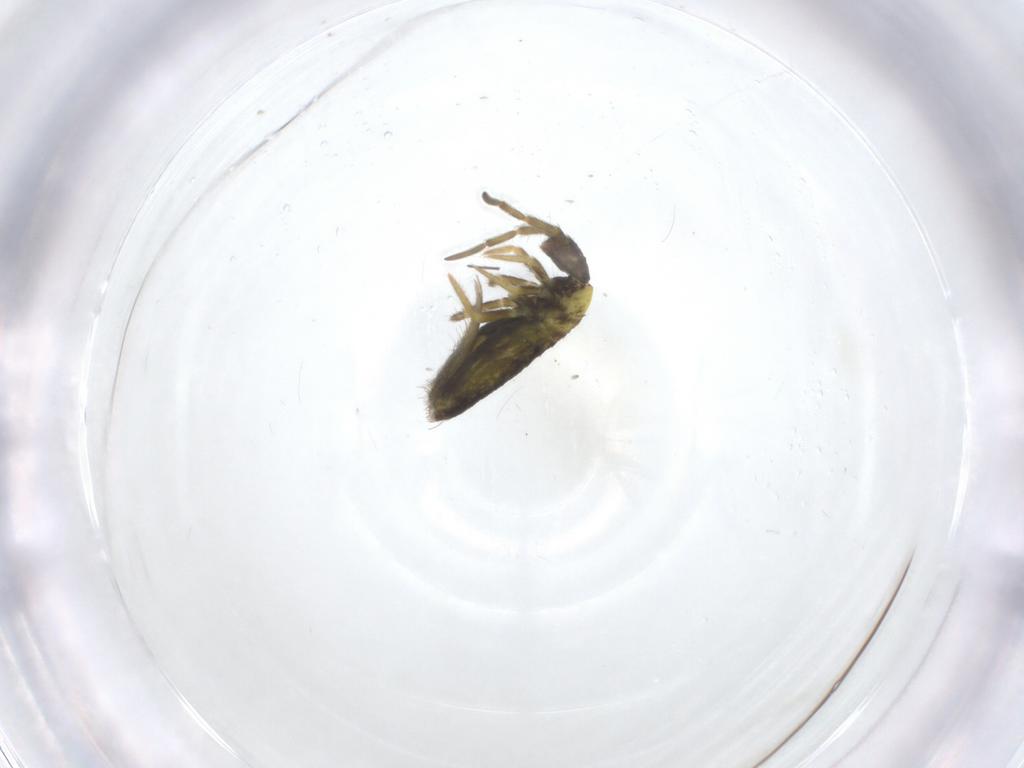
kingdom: Animalia
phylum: Arthropoda
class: Collembola
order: Entomobryomorpha
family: Entomobryidae
